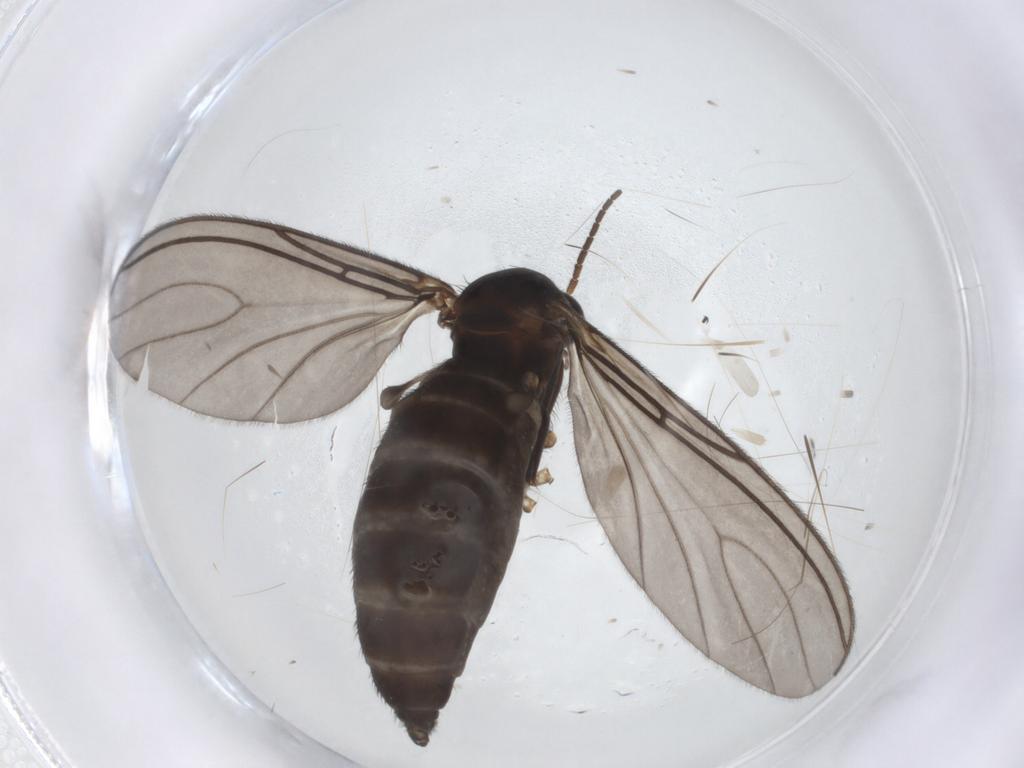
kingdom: Animalia
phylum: Arthropoda
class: Insecta
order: Diptera
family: Sciaridae
